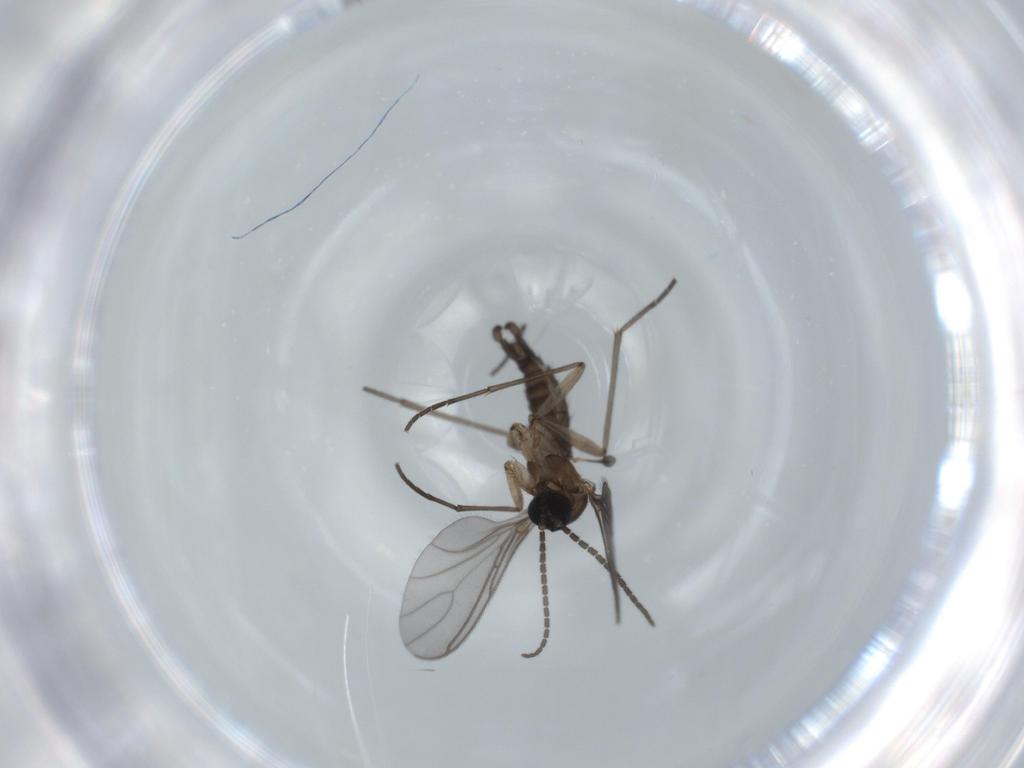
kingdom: Animalia
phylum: Arthropoda
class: Insecta
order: Diptera
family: Sciaridae
